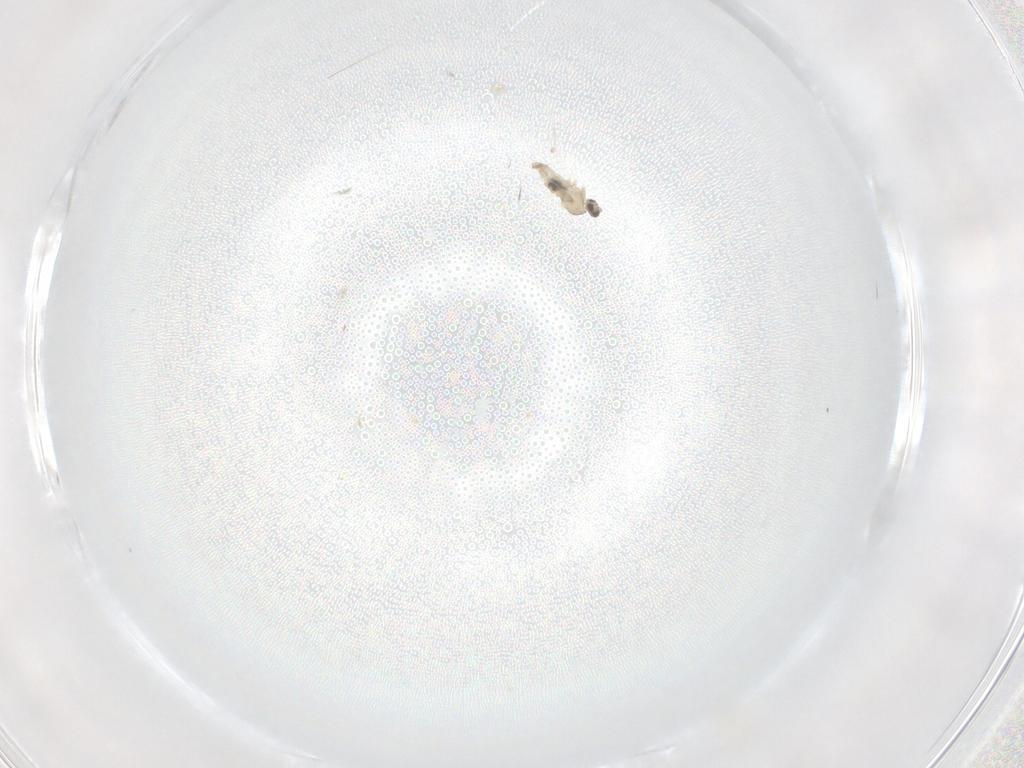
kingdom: Animalia
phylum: Arthropoda
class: Insecta
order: Diptera
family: Cecidomyiidae
